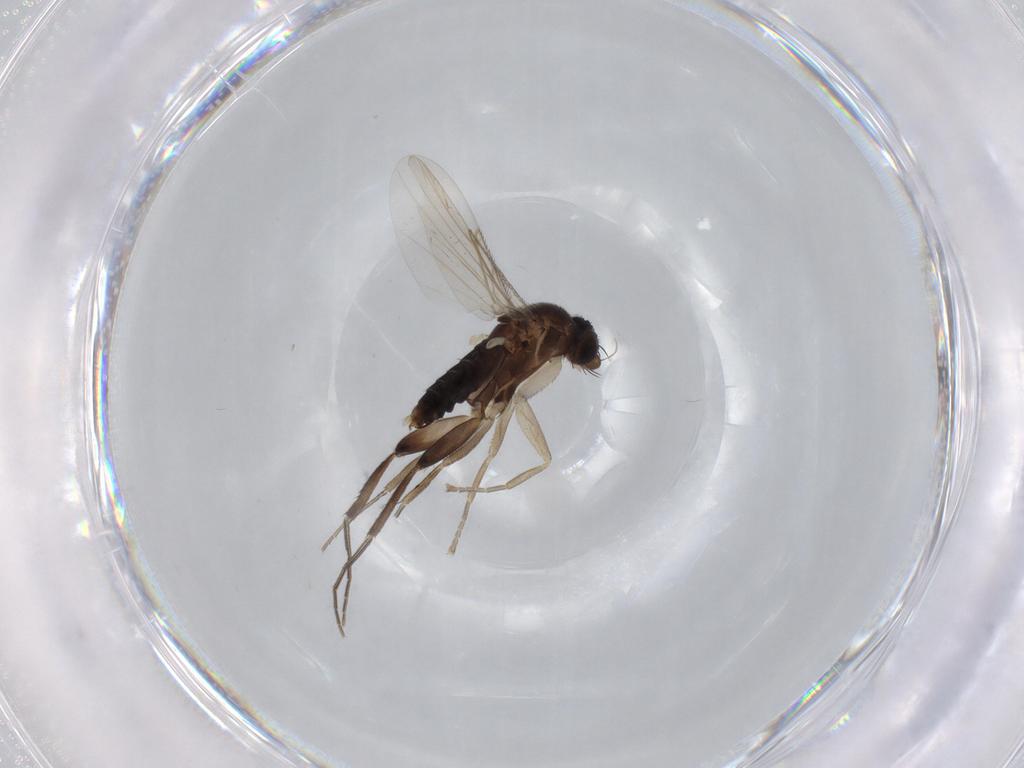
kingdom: Animalia
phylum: Arthropoda
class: Insecta
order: Diptera
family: Phoridae
